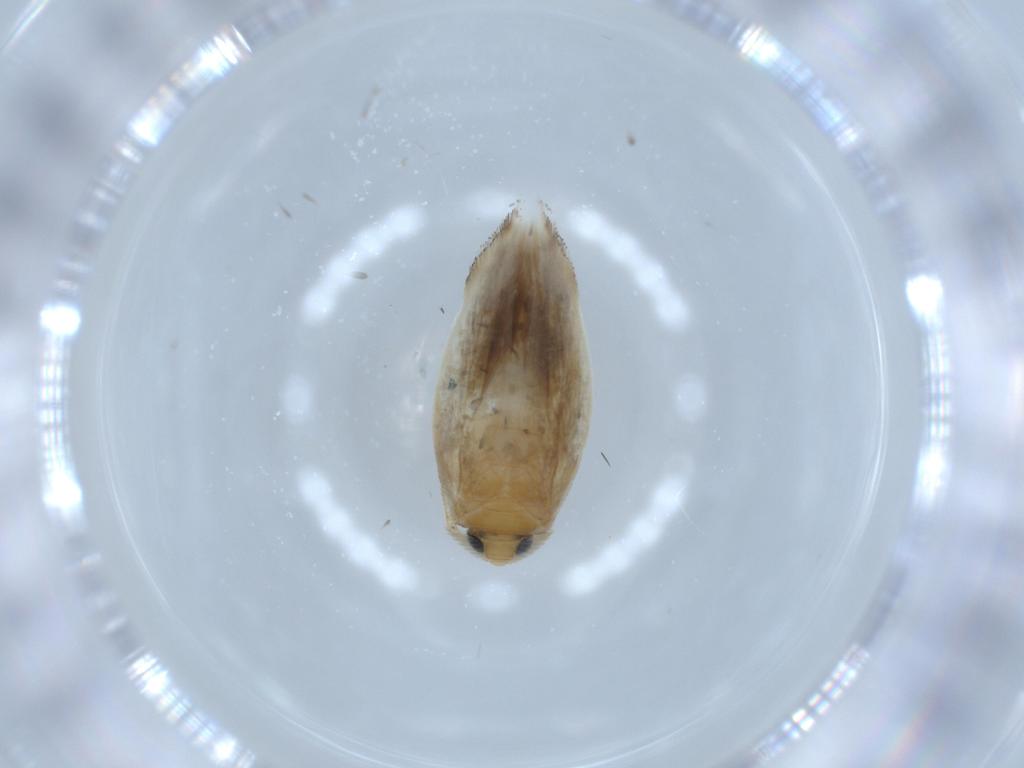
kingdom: Animalia
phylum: Arthropoda
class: Insecta
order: Lepidoptera
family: Opostegidae
